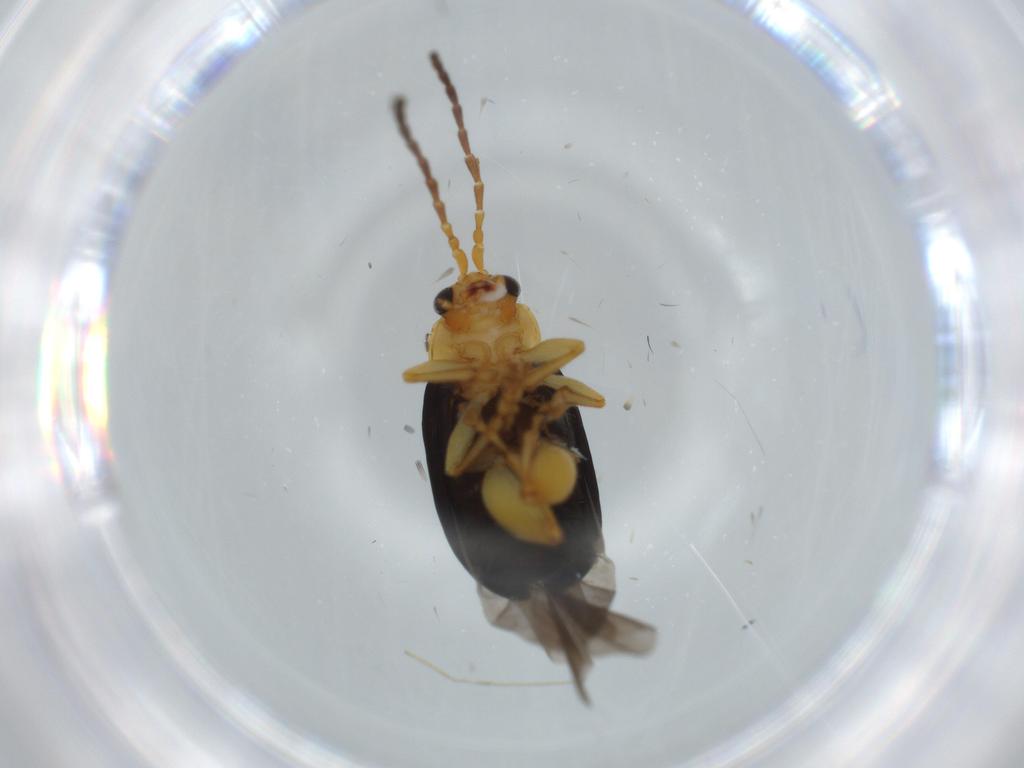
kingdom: Animalia
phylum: Arthropoda
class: Insecta
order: Coleoptera
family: Chrysomelidae
